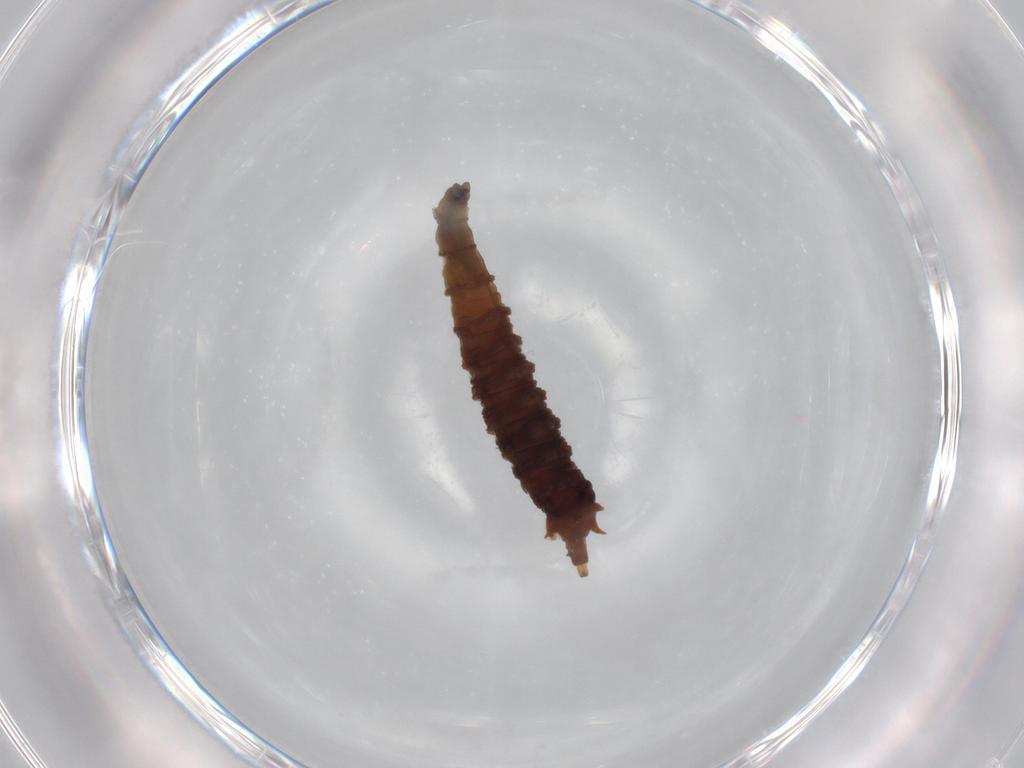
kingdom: Animalia
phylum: Arthropoda
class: Insecta
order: Diptera
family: Drosophilidae
